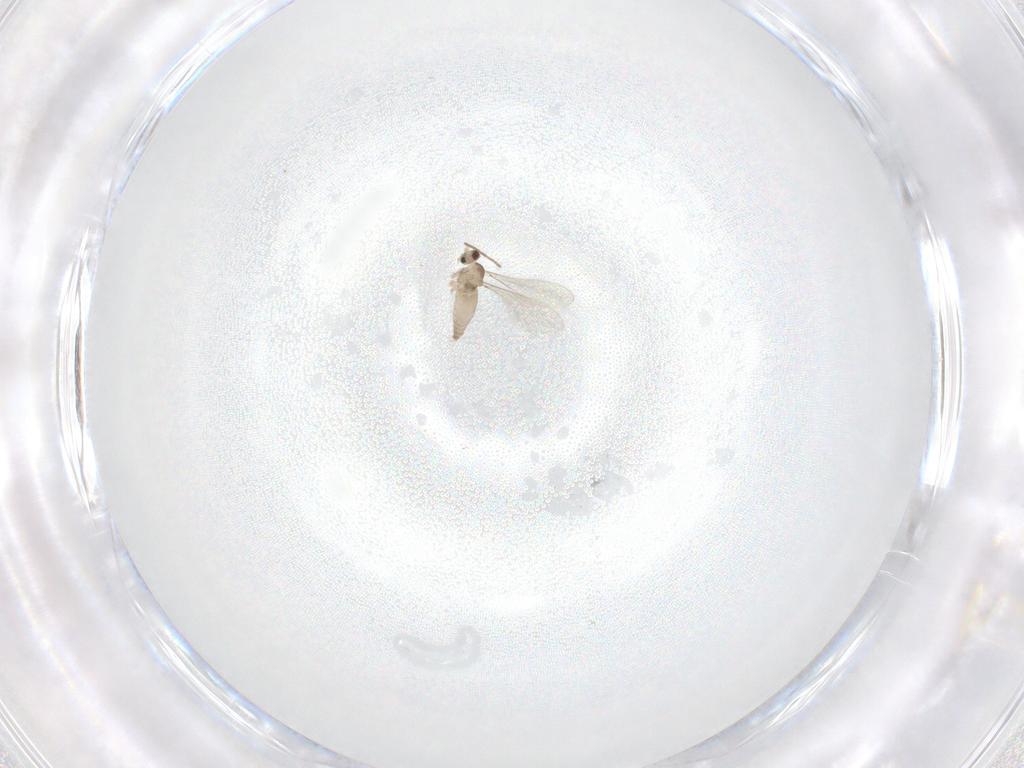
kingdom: Animalia
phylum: Arthropoda
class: Insecta
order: Diptera
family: Cecidomyiidae
